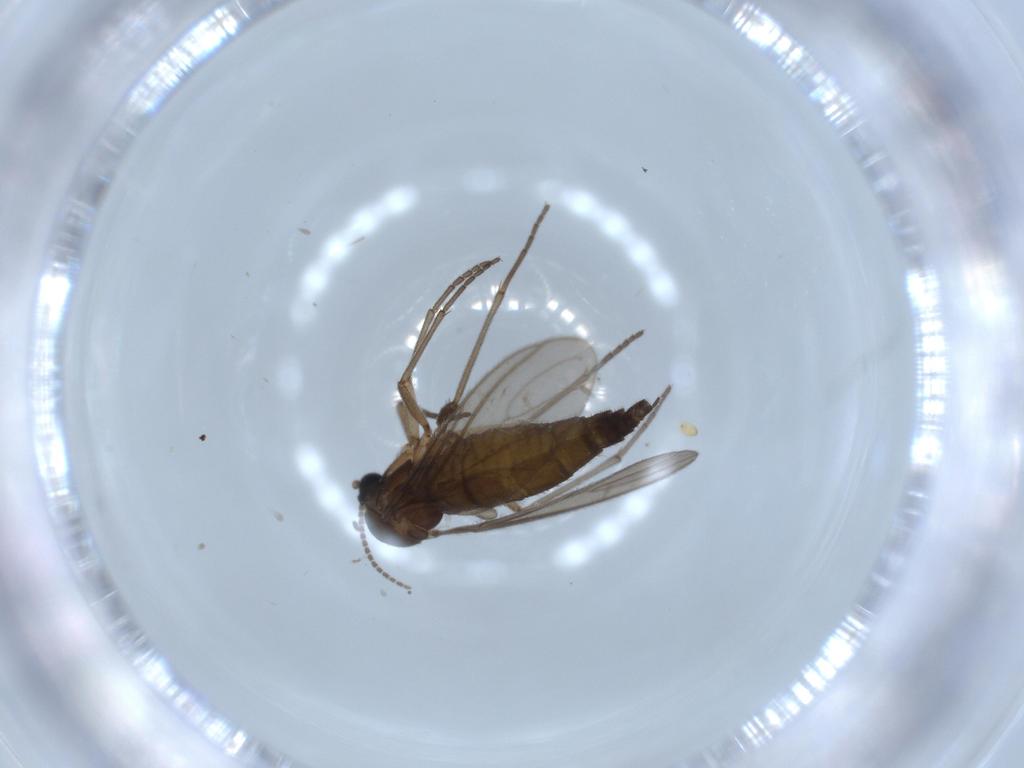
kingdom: Animalia
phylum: Arthropoda
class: Insecta
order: Diptera
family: Sciaridae
